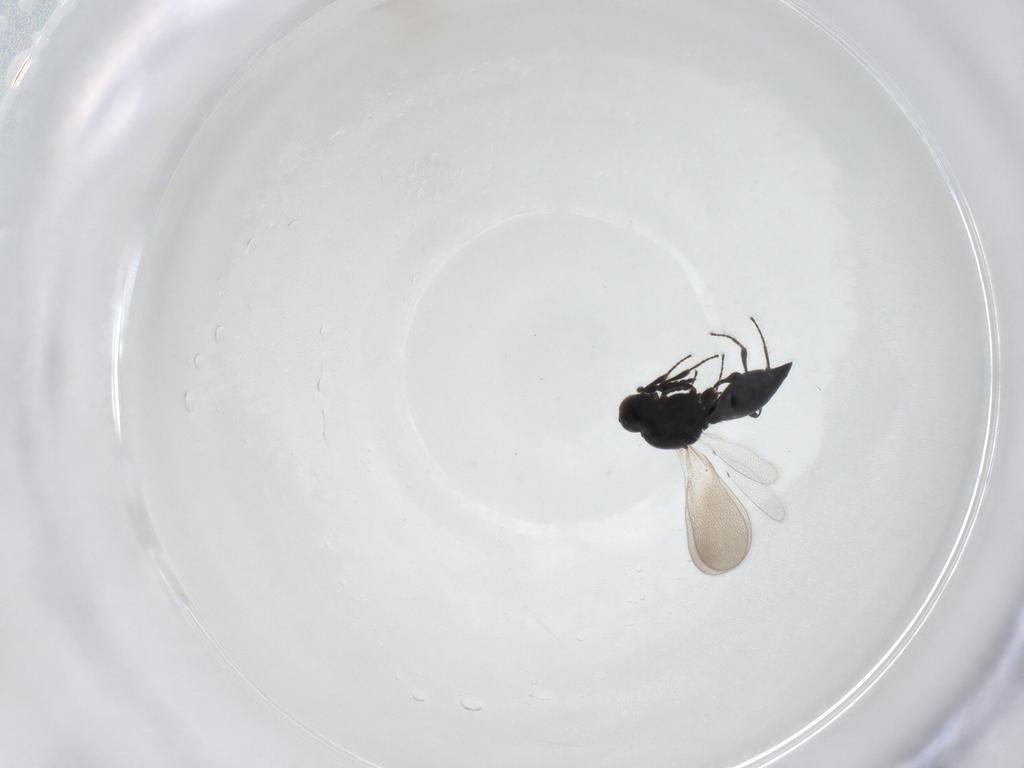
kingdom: Animalia
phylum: Arthropoda
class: Insecta
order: Hymenoptera
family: Platygastridae
